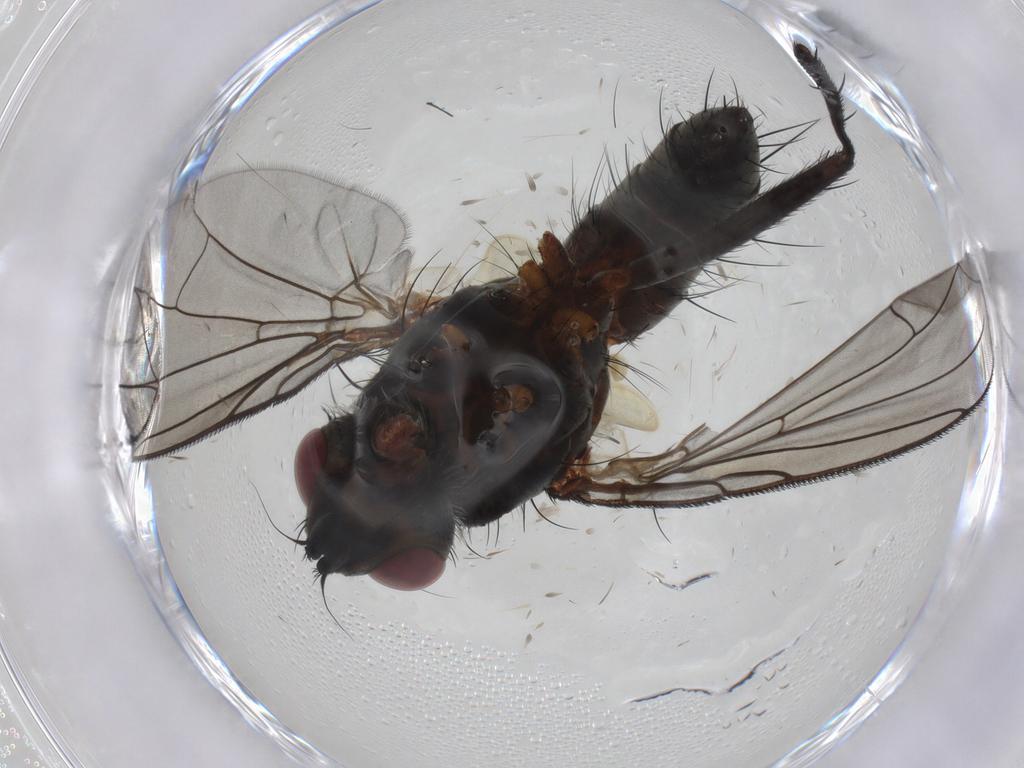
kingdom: Animalia
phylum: Arthropoda
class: Insecta
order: Diptera
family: Tachinidae
